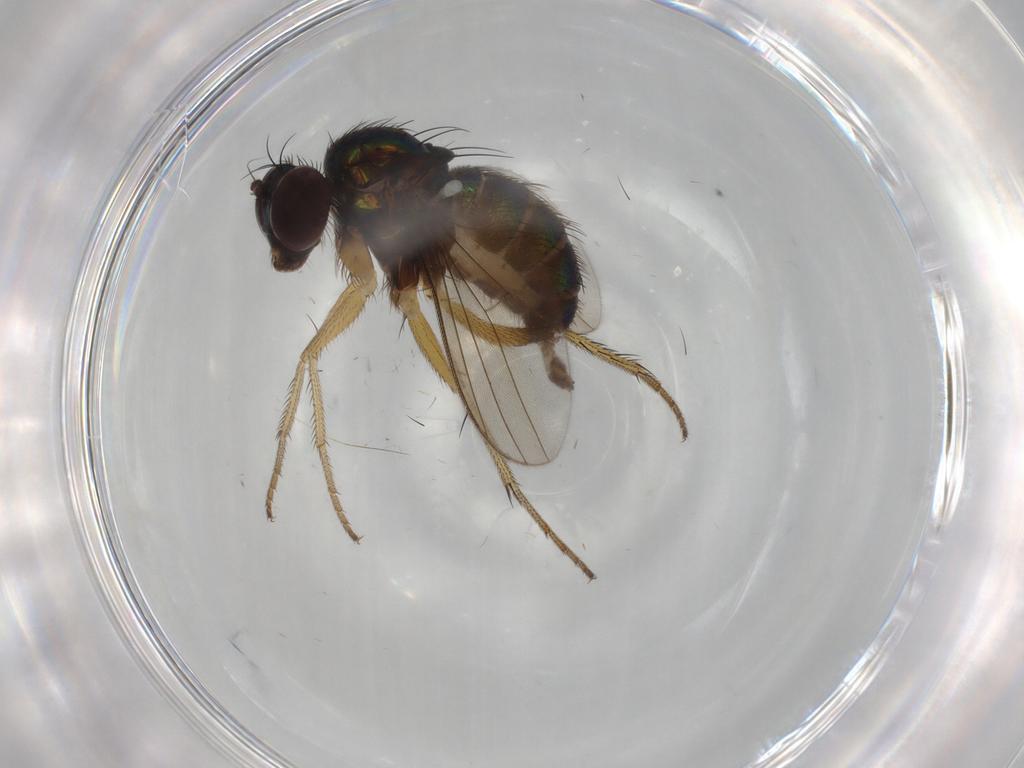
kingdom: Animalia
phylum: Arthropoda
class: Insecta
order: Diptera
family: Dolichopodidae
